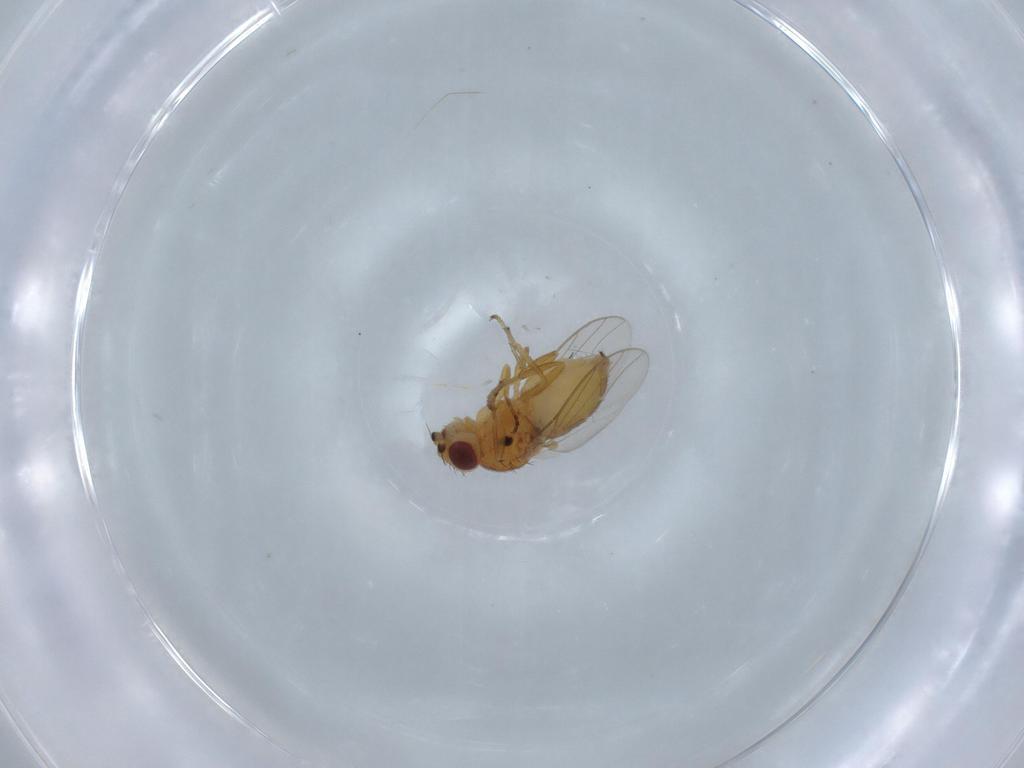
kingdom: Animalia
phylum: Arthropoda
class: Insecta
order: Diptera
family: Chloropidae
